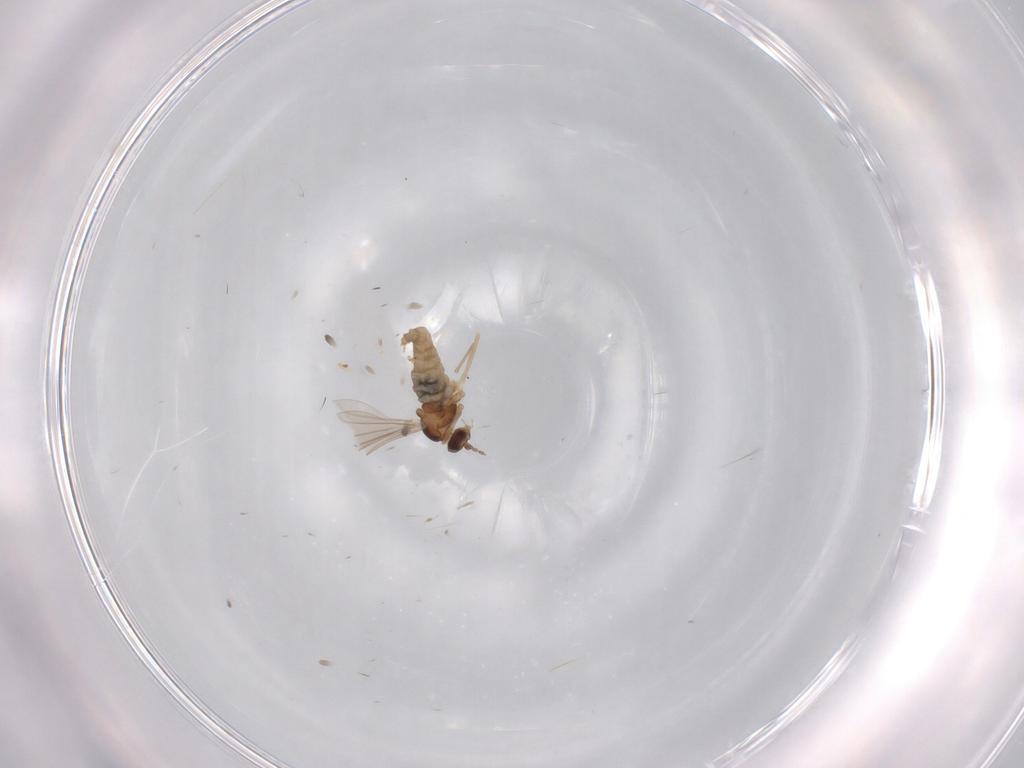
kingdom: Animalia
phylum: Arthropoda
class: Insecta
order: Diptera
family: Cecidomyiidae
